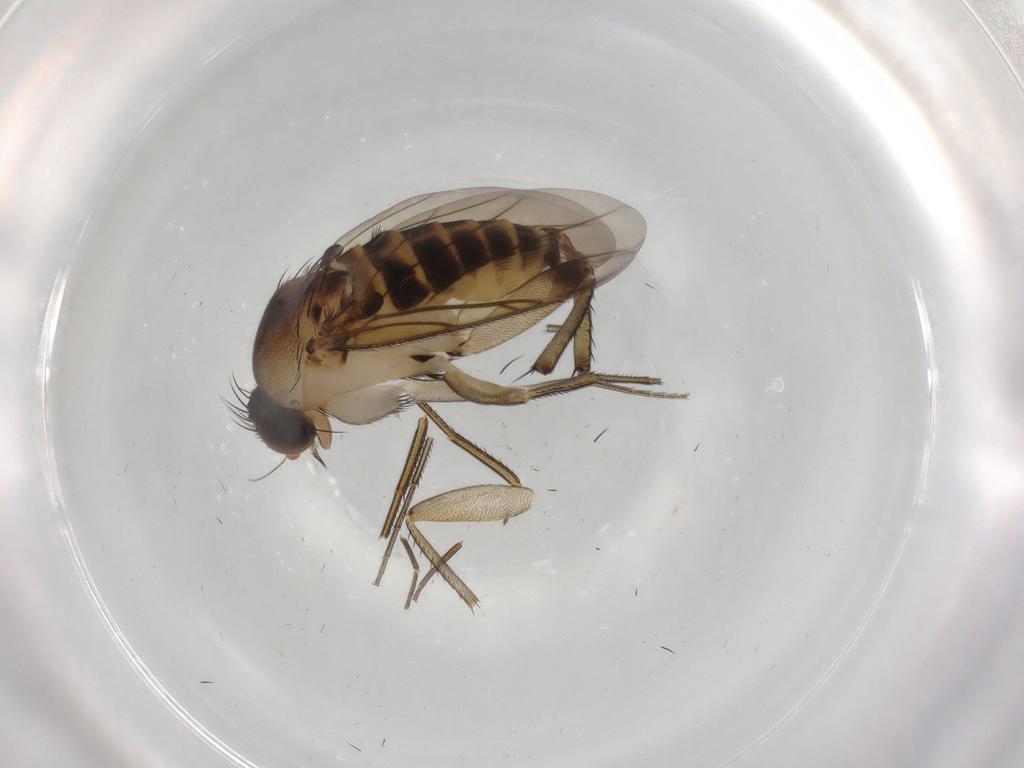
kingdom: Animalia
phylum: Arthropoda
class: Insecta
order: Diptera
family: Phoridae
